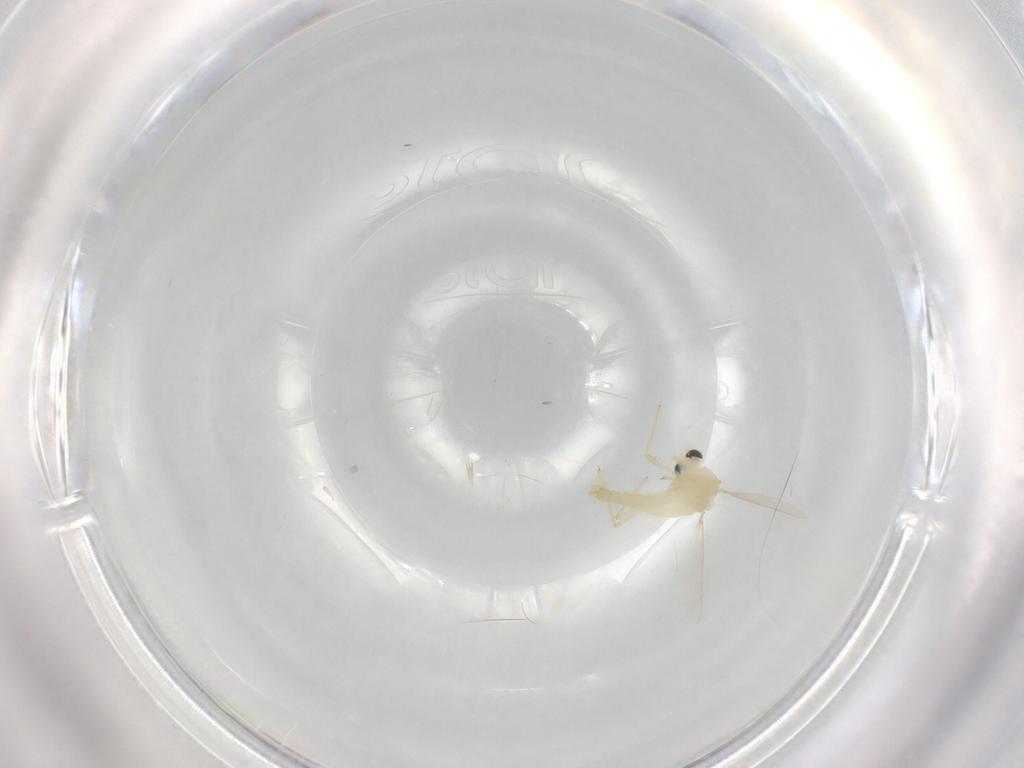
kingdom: Animalia
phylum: Arthropoda
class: Insecta
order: Diptera
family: Chironomidae
